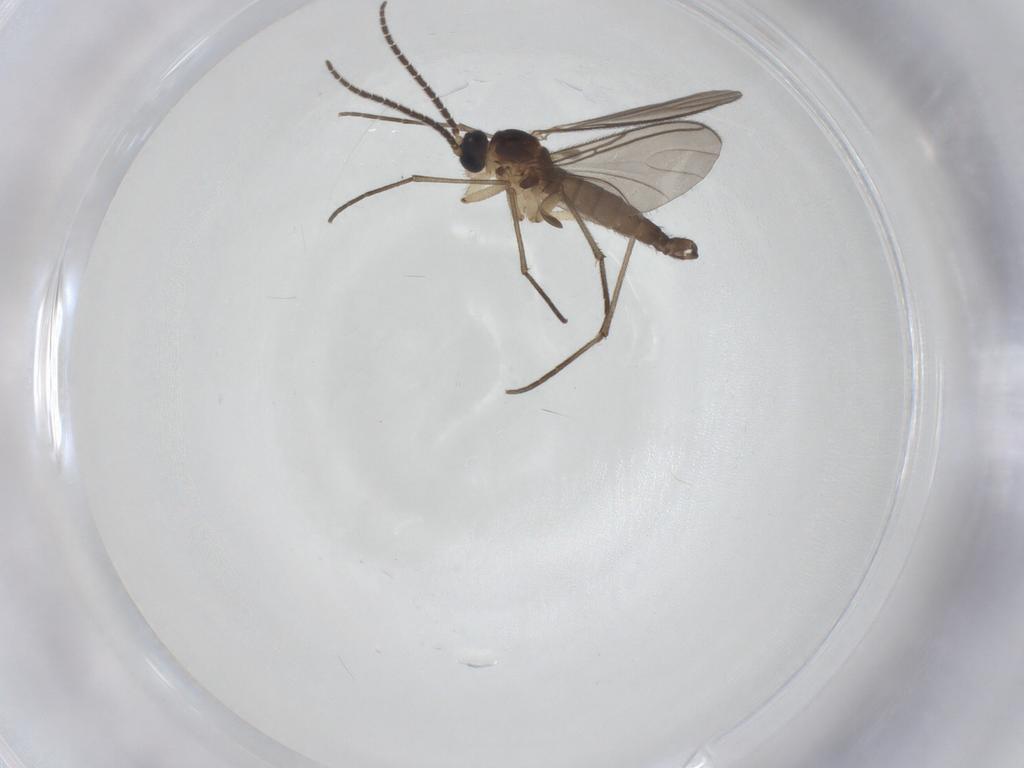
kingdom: Animalia
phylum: Arthropoda
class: Insecta
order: Diptera
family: Sciaridae
